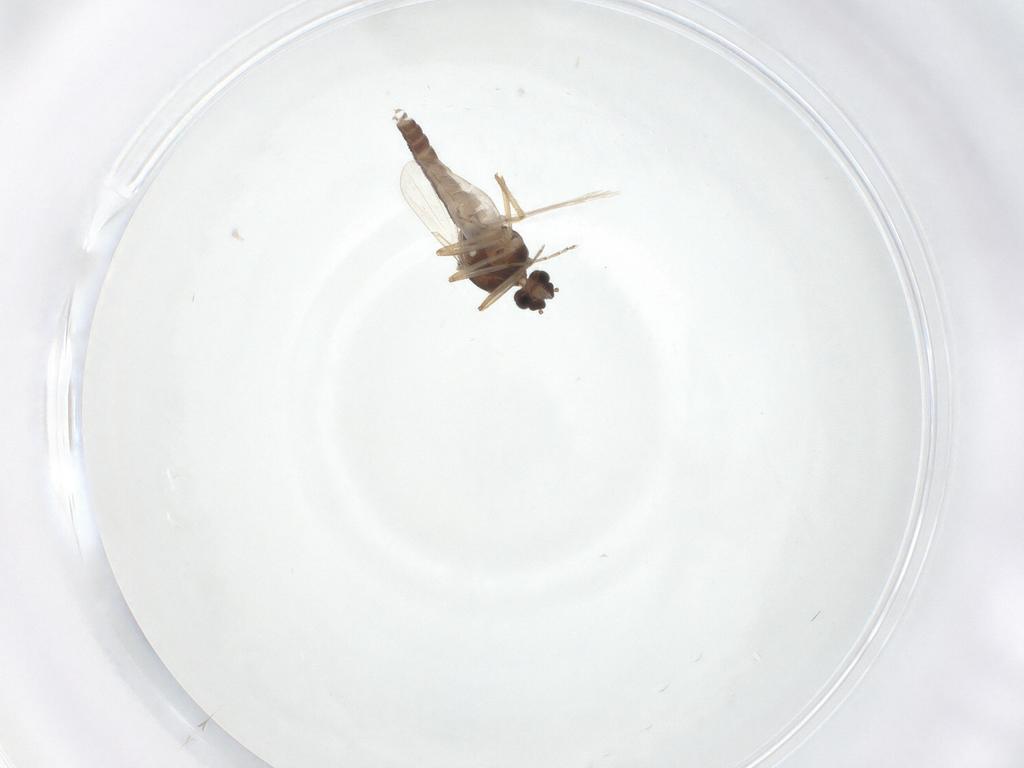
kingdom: Animalia
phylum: Arthropoda
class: Insecta
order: Diptera
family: Ceratopogonidae
